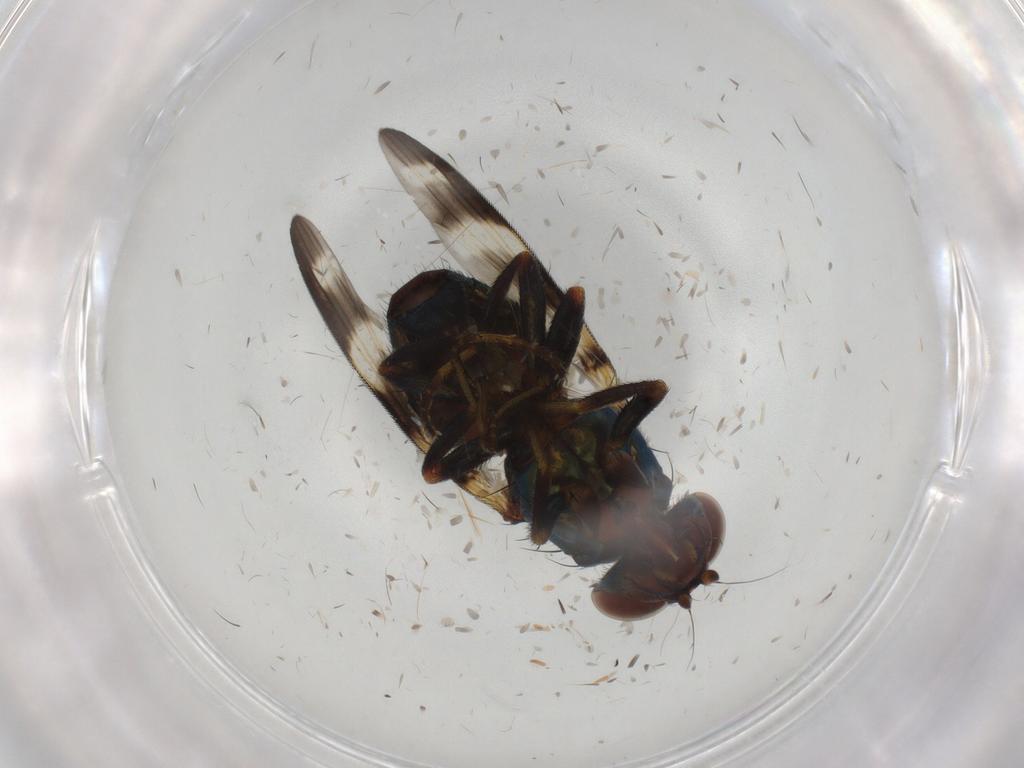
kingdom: Animalia
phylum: Arthropoda
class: Insecta
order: Diptera
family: Ulidiidae
